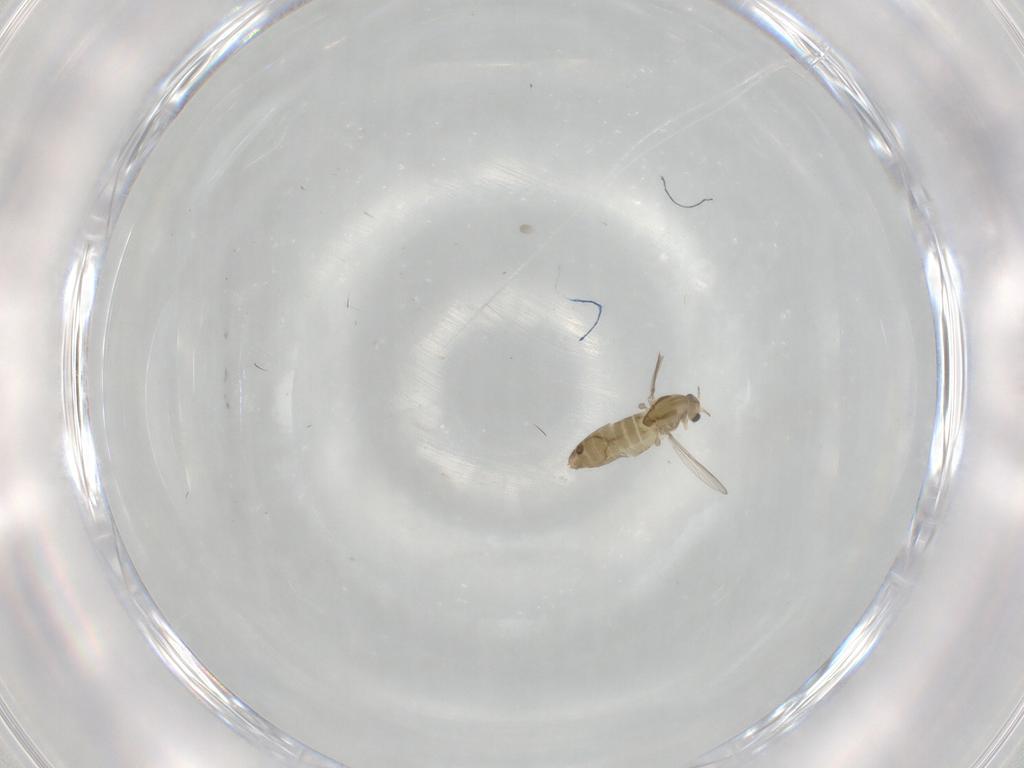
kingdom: Animalia
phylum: Arthropoda
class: Insecta
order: Diptera
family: Chironomidae
